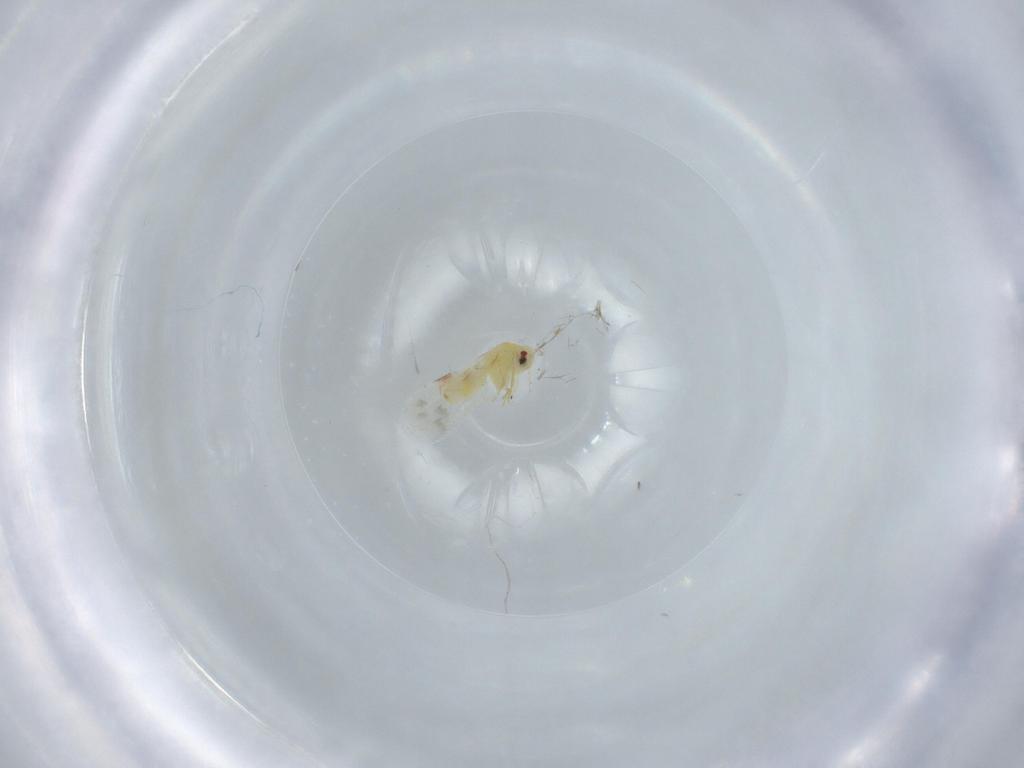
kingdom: Animalia
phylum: Arthropoda
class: Insecta
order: Hemiptera
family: Aleyrodidae
